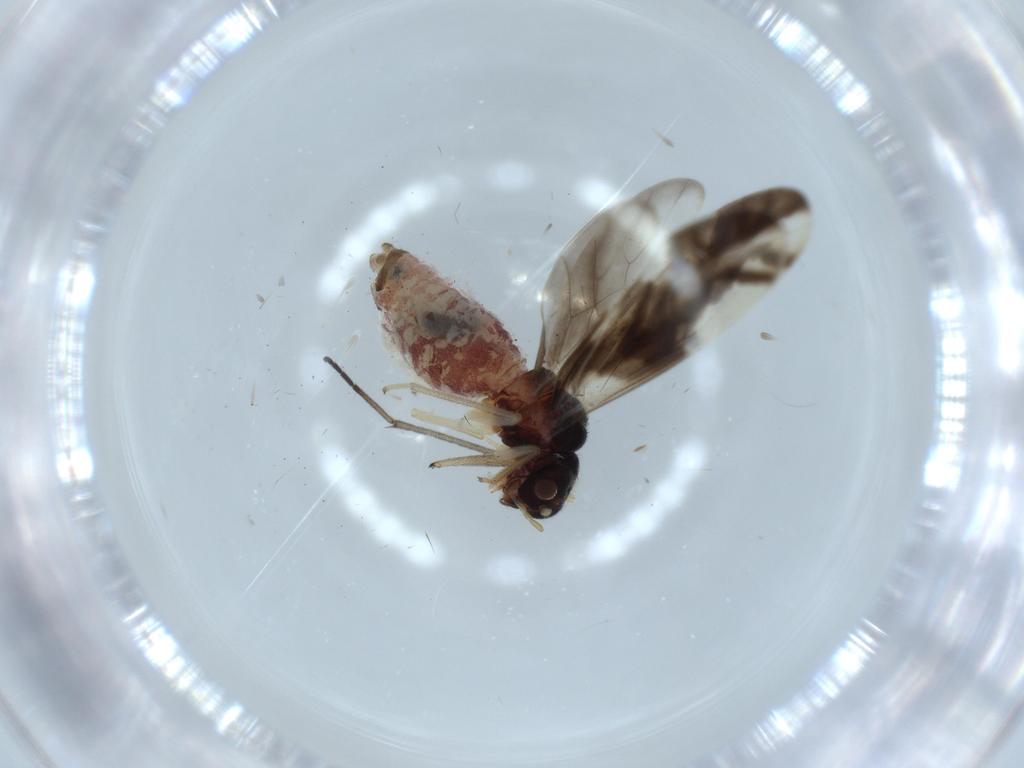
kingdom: Animalia
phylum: Arthropoda
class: Insecta
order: Psocodea
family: Caeciliusidae
